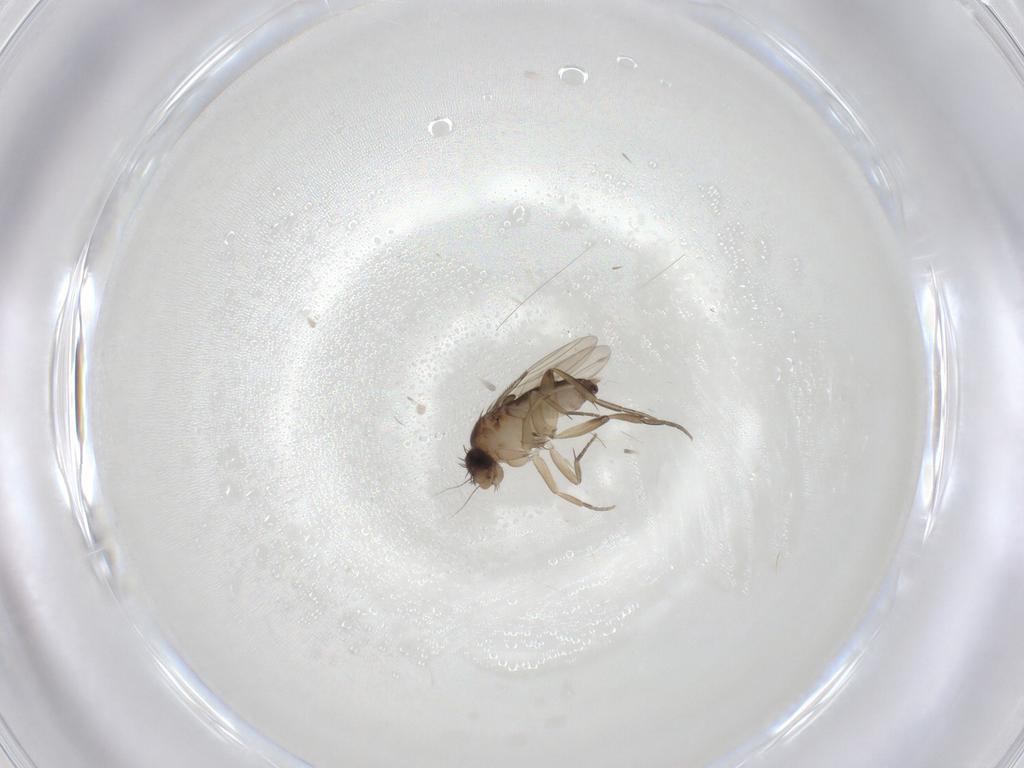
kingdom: Animalia
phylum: Arthropoda
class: Insecta
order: Diptera
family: Phoridae
